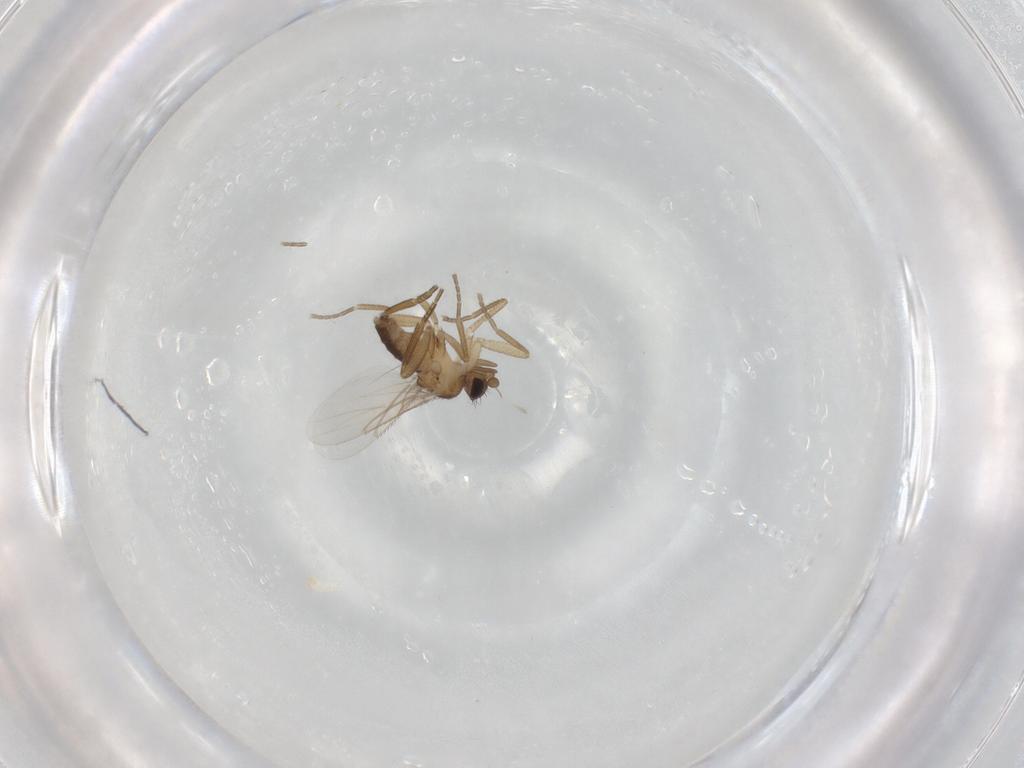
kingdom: Animalia
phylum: Arthropoda
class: Insecta
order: Diptera
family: Phoridae
